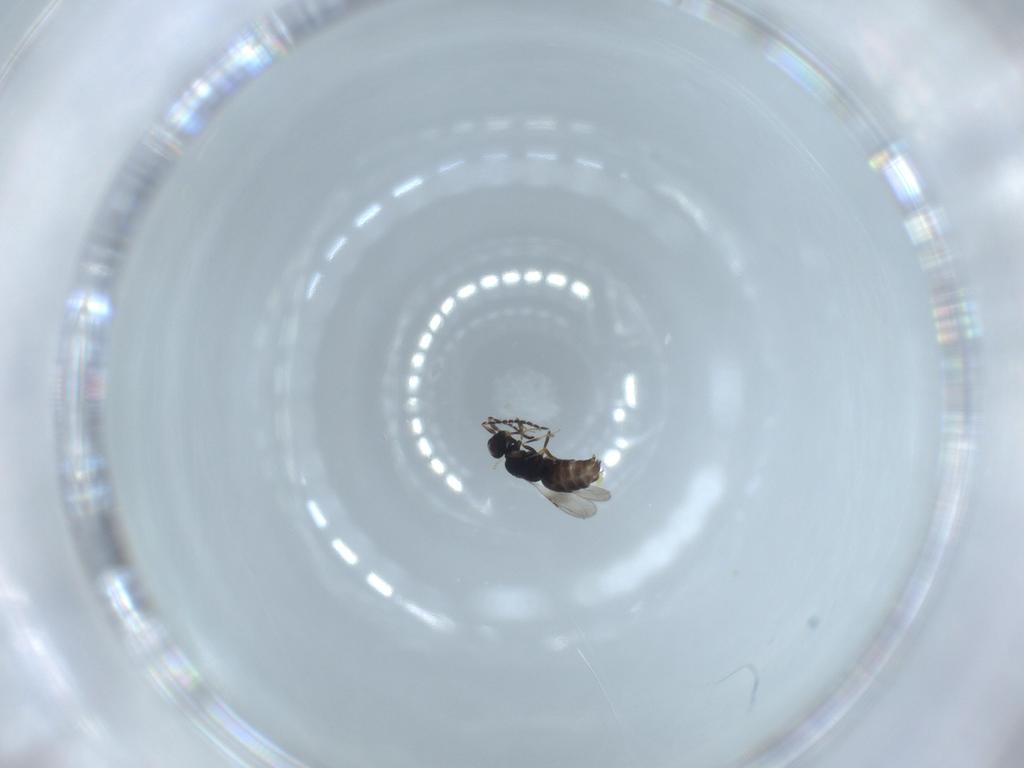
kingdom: Animalia
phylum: Arthropoda
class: Insecta
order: Hymenoptera
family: Ceraphronidae
